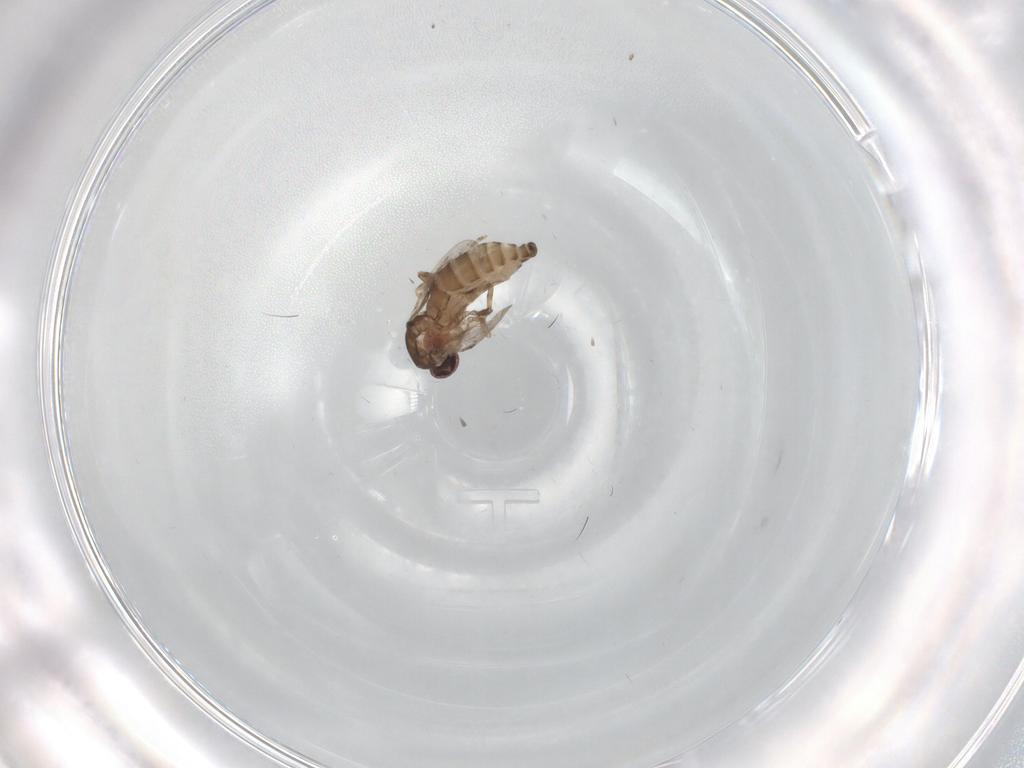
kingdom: Animalia
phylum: Arthropoda
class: Insecta
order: Diptera
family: Ceratopogonidae
